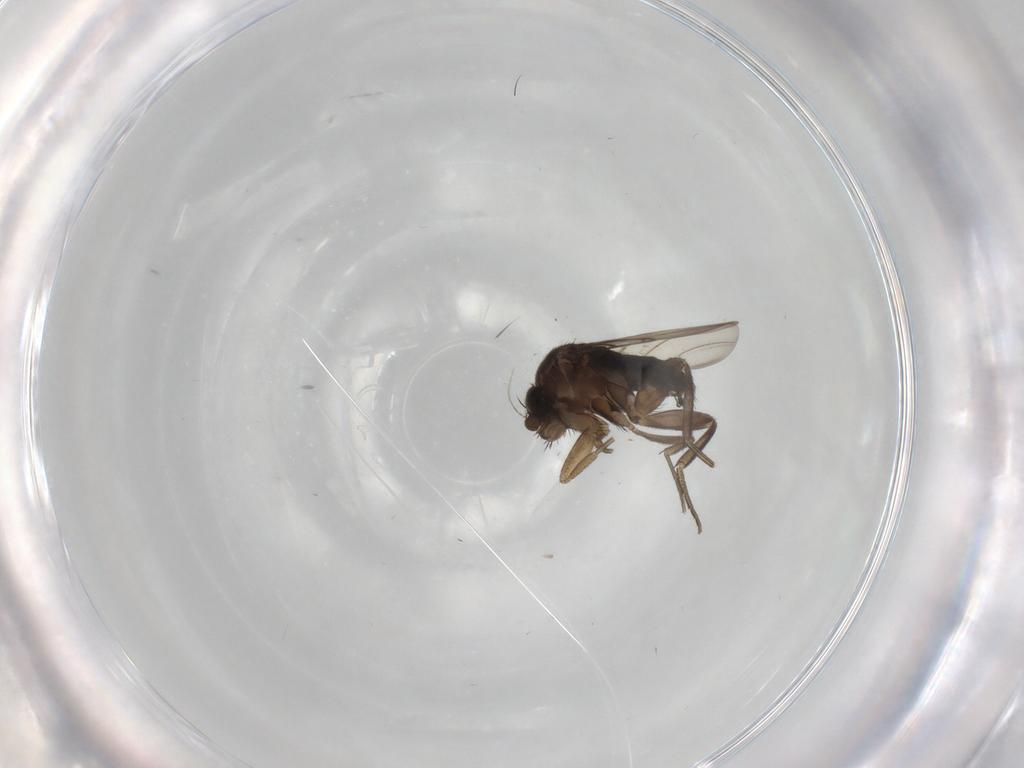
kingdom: Animalia
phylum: Arthropoda
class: Insecta
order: Diptera
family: Phoridae
